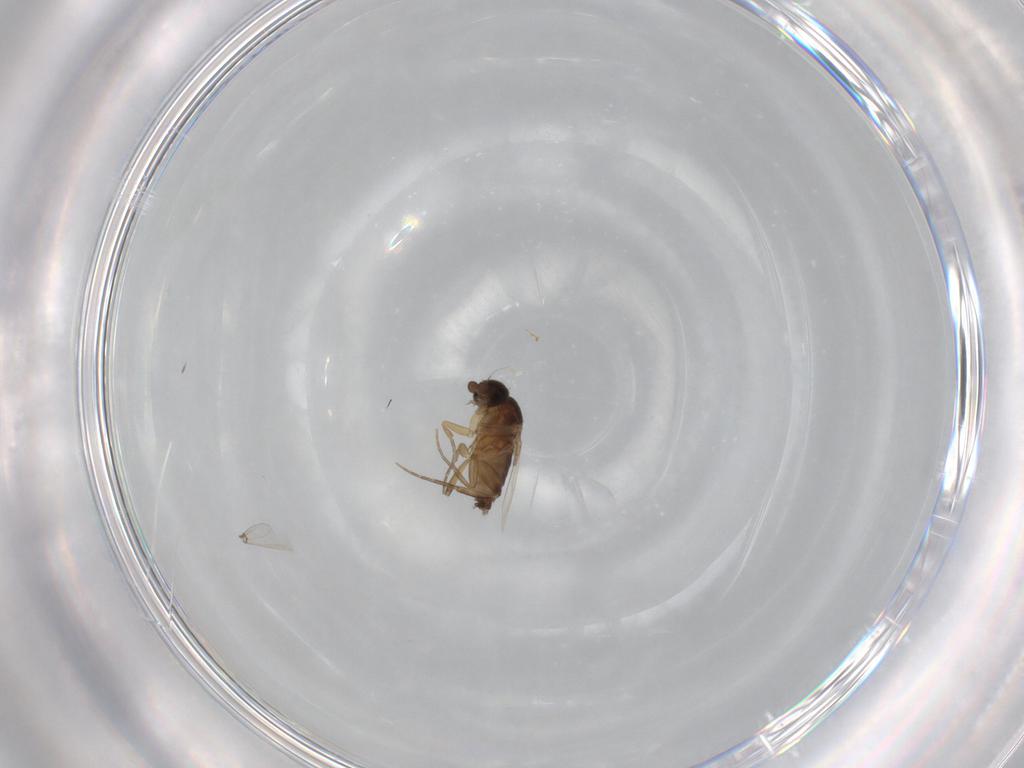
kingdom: Animalia
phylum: Arthropoda
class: Insecta
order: Diptera
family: Phoridae
